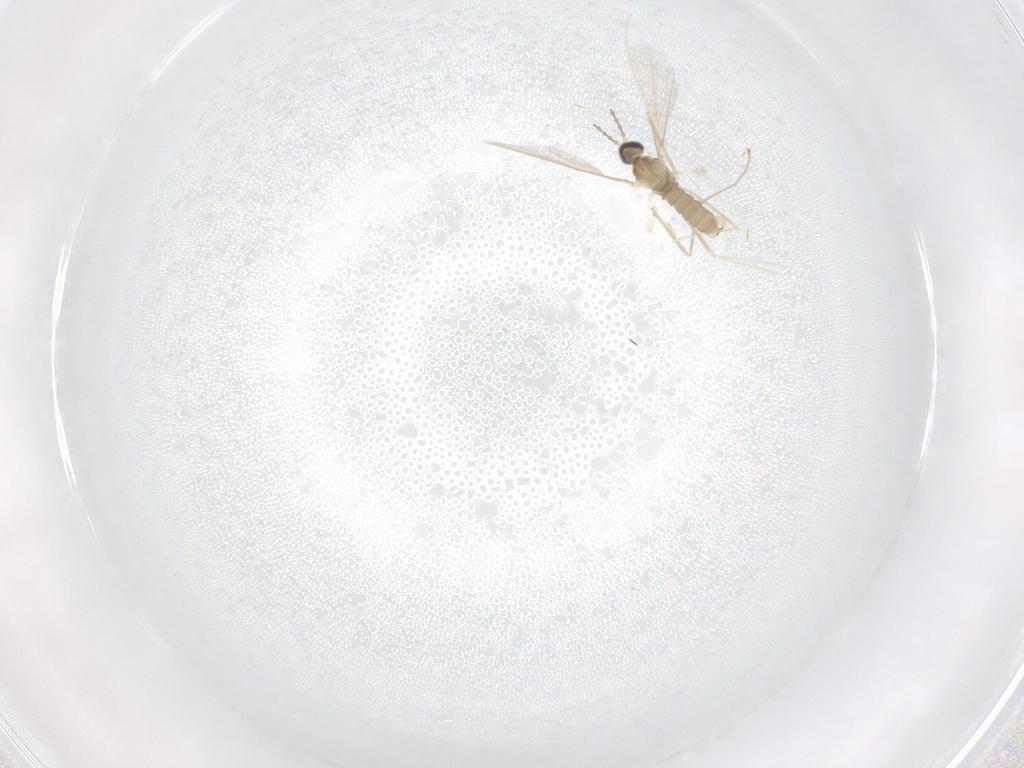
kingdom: Animalia
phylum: Arthropoda
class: Insecta
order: Diptera
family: Cecidomyiidae
